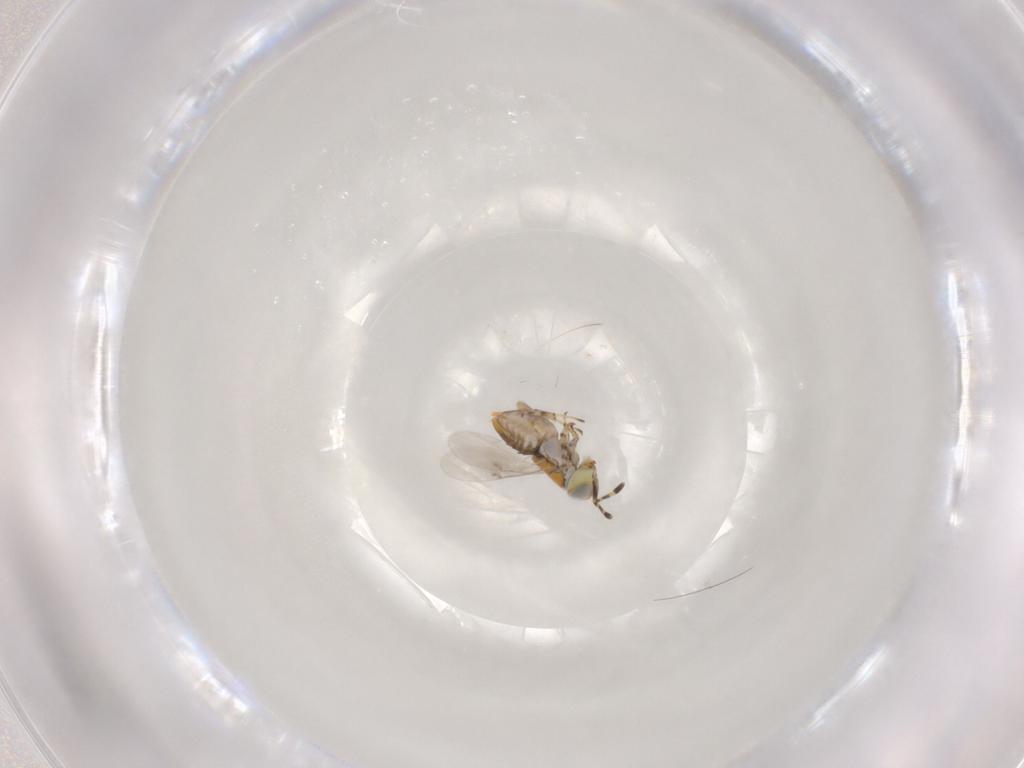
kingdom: Animalia
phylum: Arthropoda
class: Insecta
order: Hymenoptera
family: Encyrtidae
